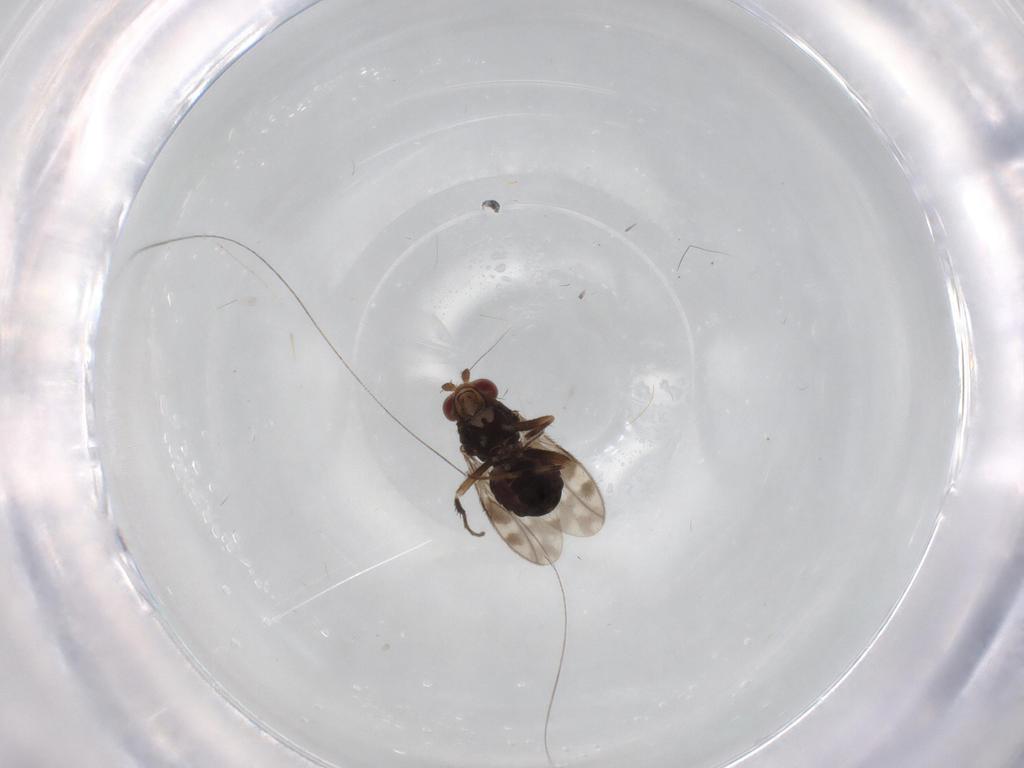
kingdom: Animalia
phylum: Arthropoda
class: Insecta
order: Diptera
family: Sphaeroceridae
